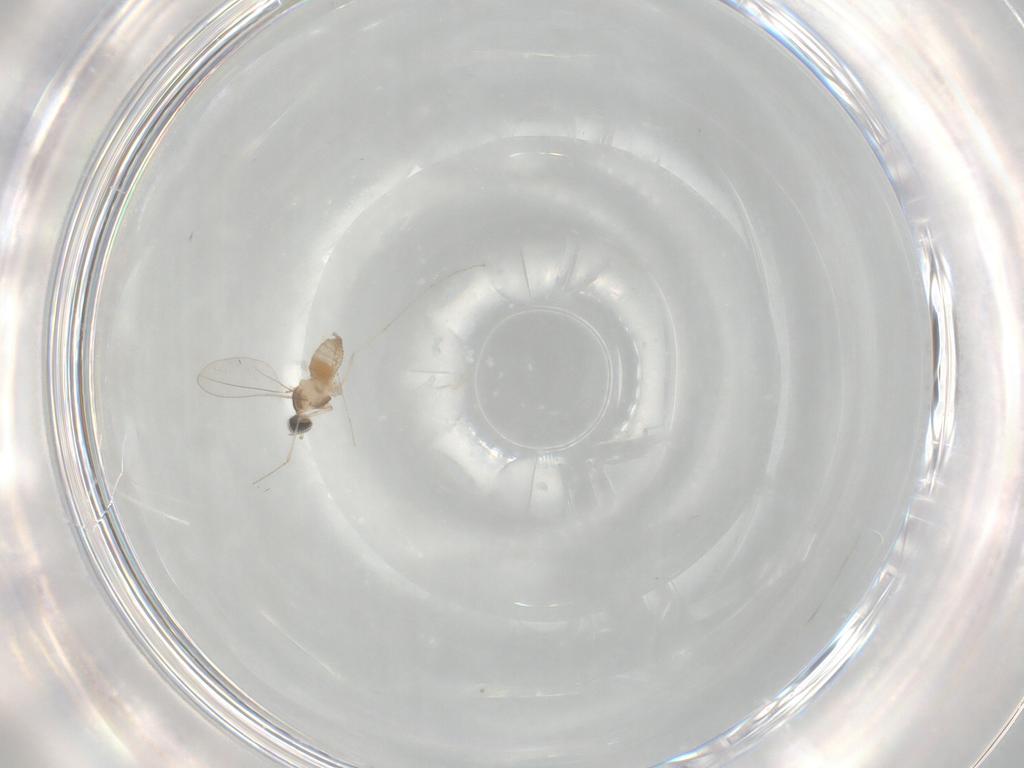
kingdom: Animalia
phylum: Arthropoda
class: Insecta
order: Diptera
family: Cecidomyiidae
